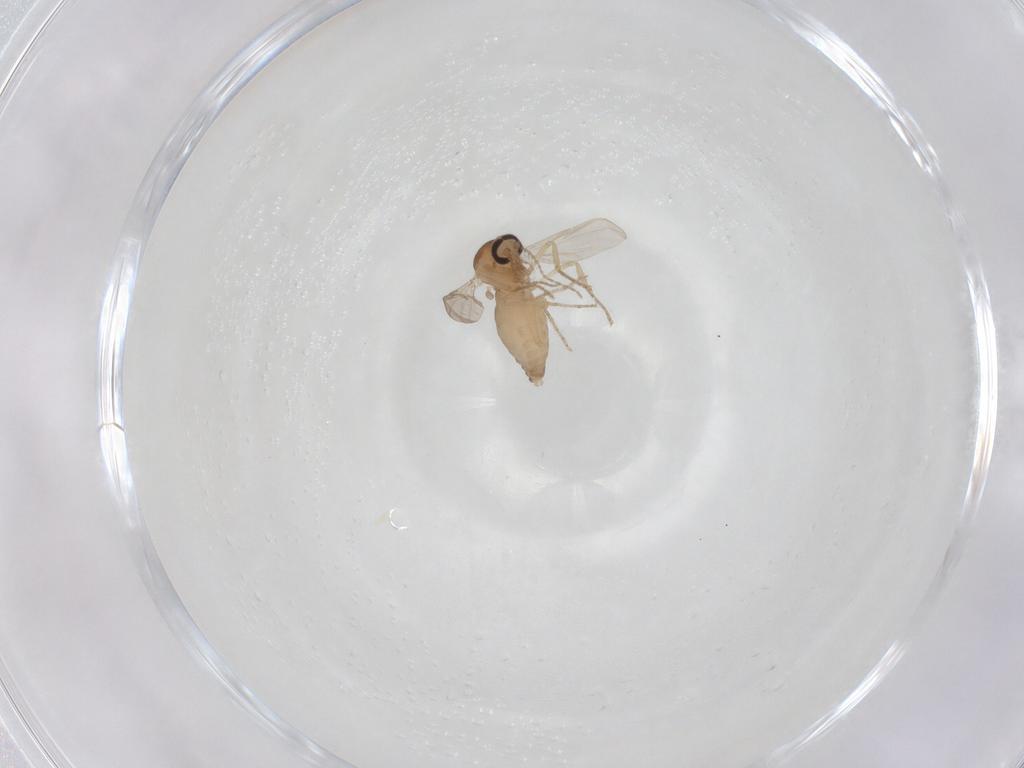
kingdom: Animalia
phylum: Arthropoda
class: Insecta
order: Diptera
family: Ceratopogonidae
